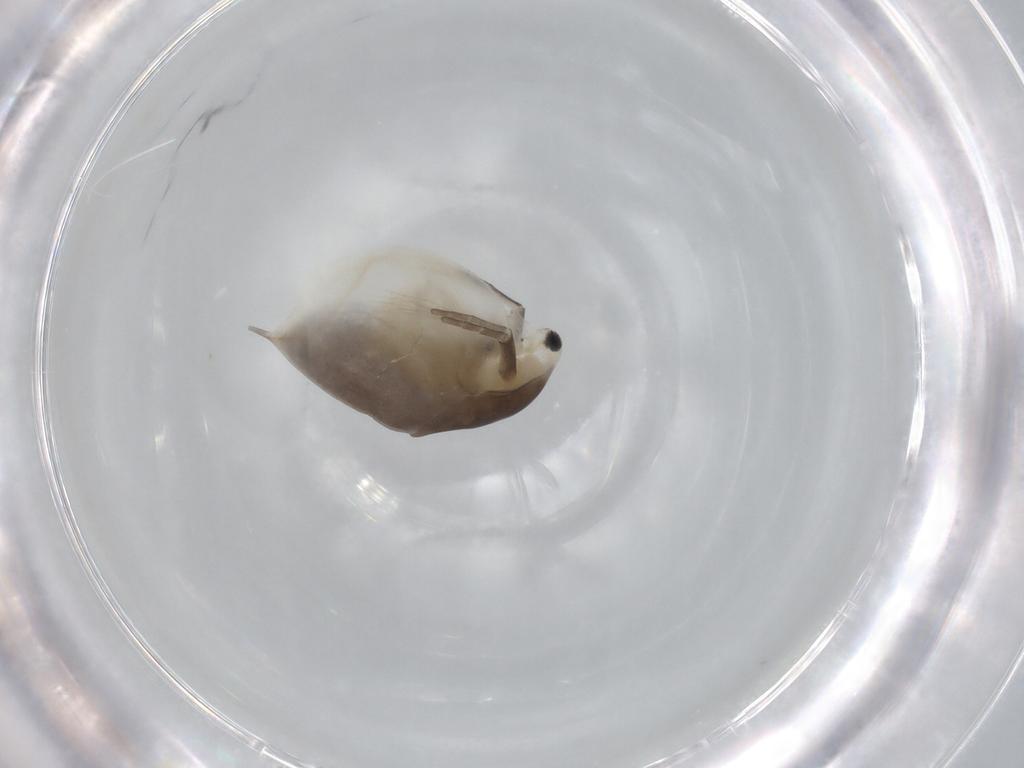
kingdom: Animalia
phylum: Arthropoda
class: Branchiopoda
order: Diplostraca
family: Daphniidae
